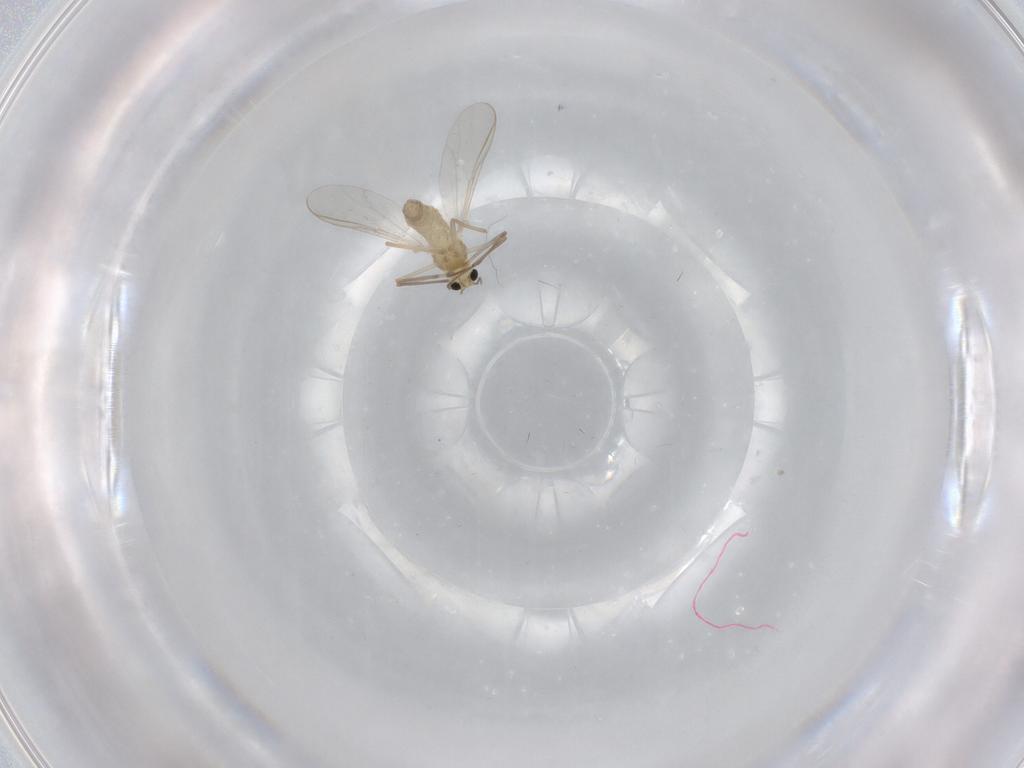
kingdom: Animalia
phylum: Arthropoda
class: Insecta
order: Diptera
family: Chironomidae
